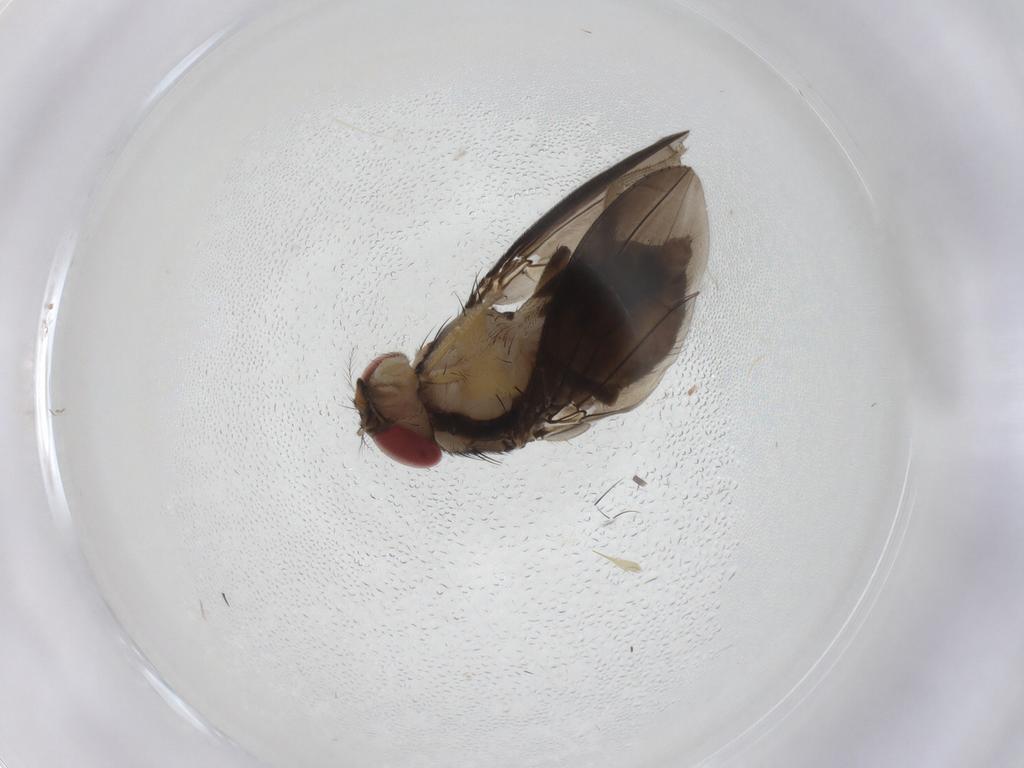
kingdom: Animalia
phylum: Arthropoda
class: Insecta
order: Diptera
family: Drosophilidae
